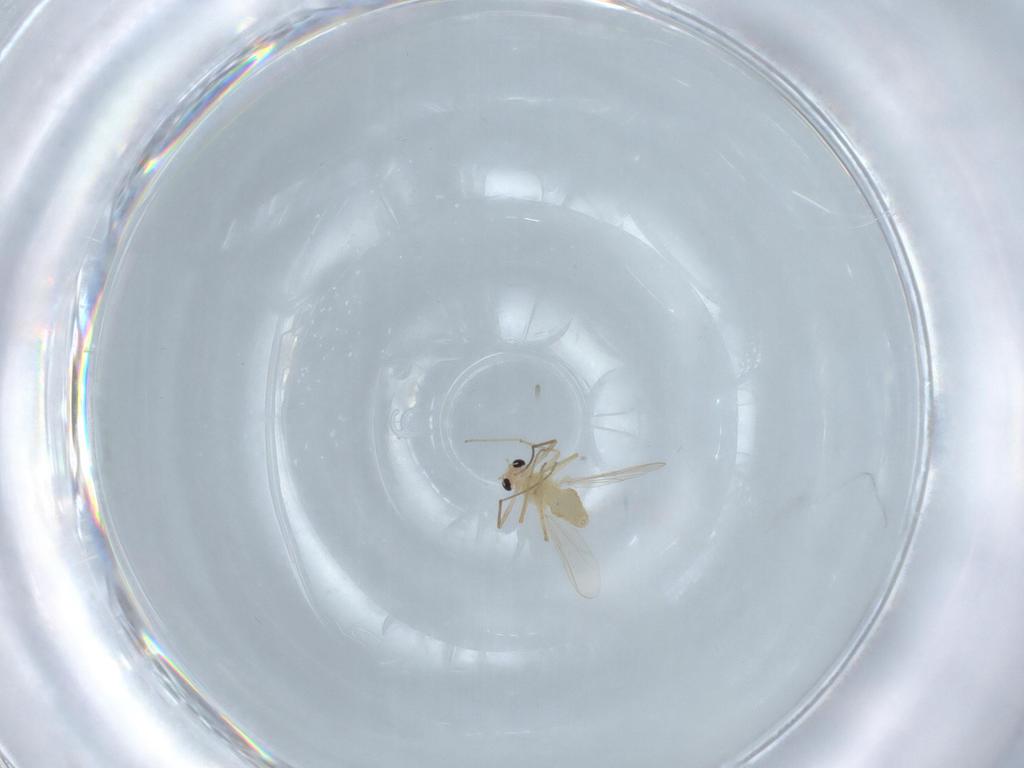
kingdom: Animalia
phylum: Arthropoda
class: Insecta
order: Diptera
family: Chironomidae
